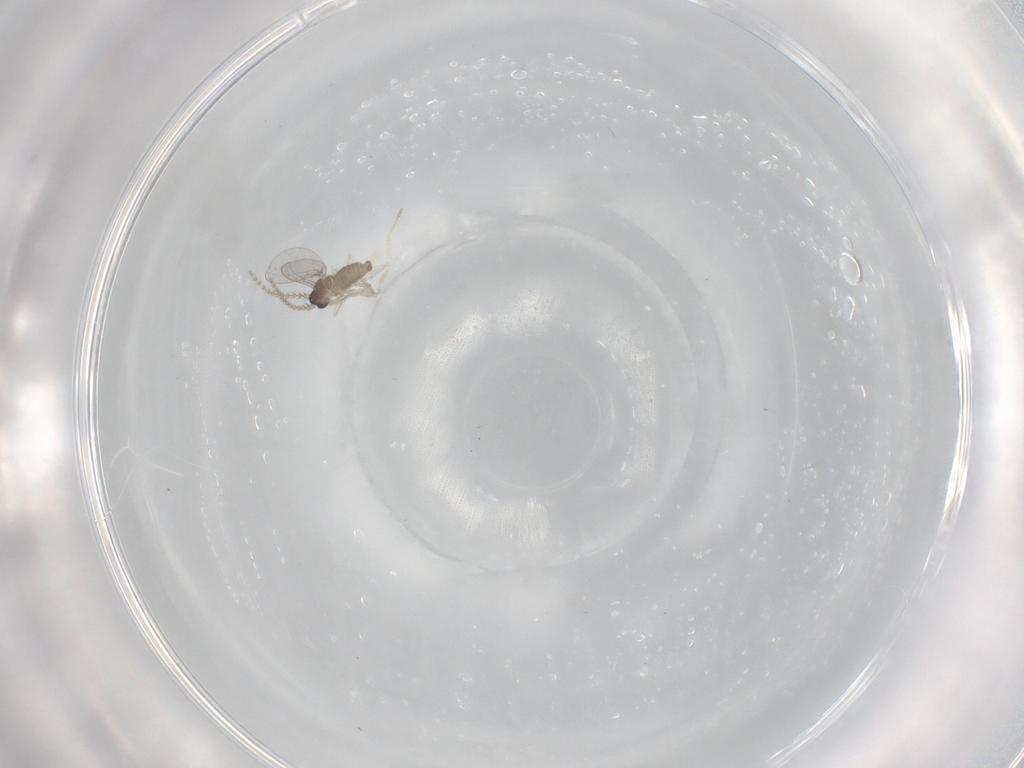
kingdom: Animalia
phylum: Arthropoda
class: Insecta
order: Diptera
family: Cecidomyiidae
